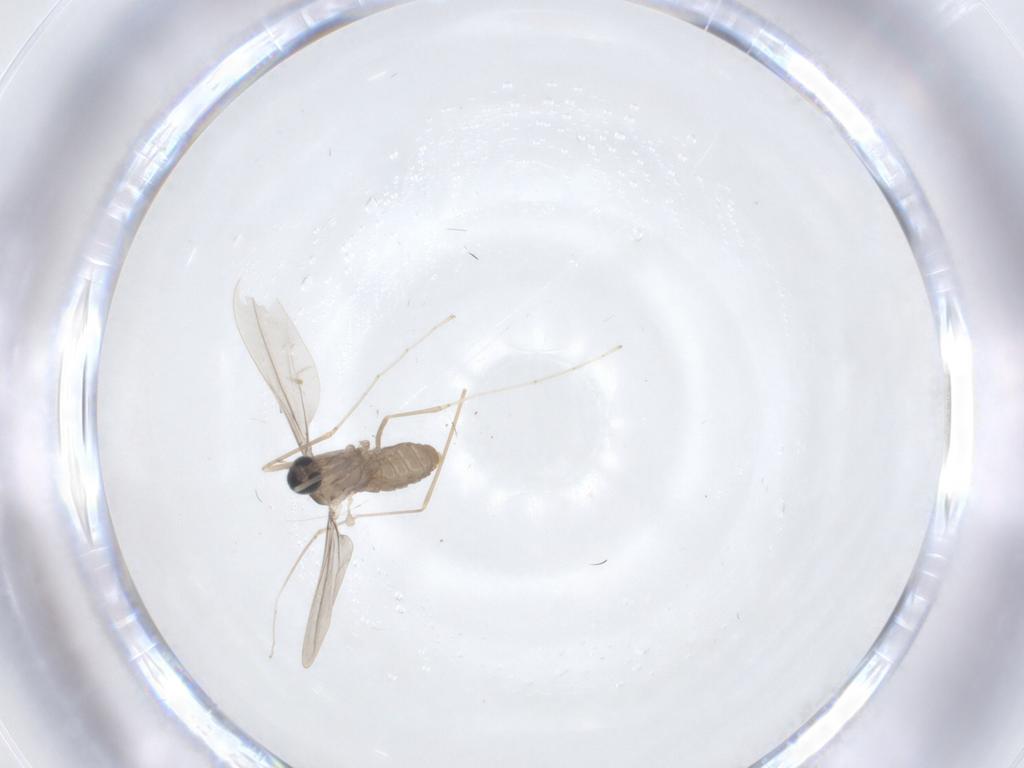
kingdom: Animalia
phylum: Arthropoda
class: Insecta
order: Diptera
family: Cecidomyiidae
